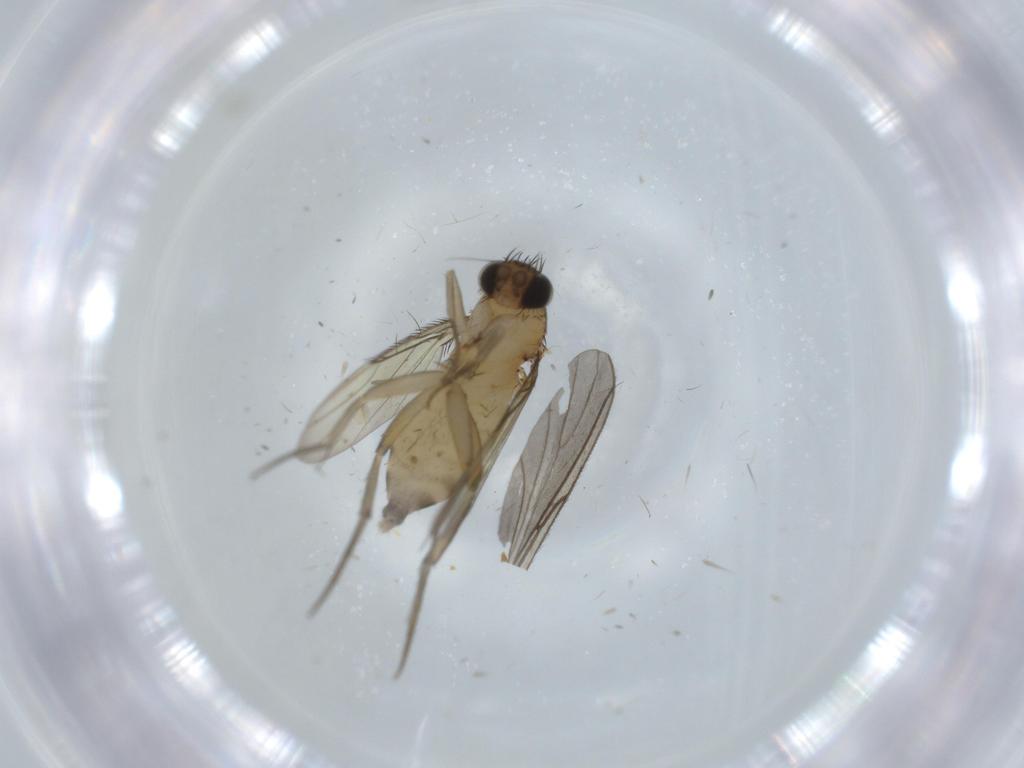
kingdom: Animalia
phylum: Arthropoda
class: Insecta
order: Diptera
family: Phoridae
